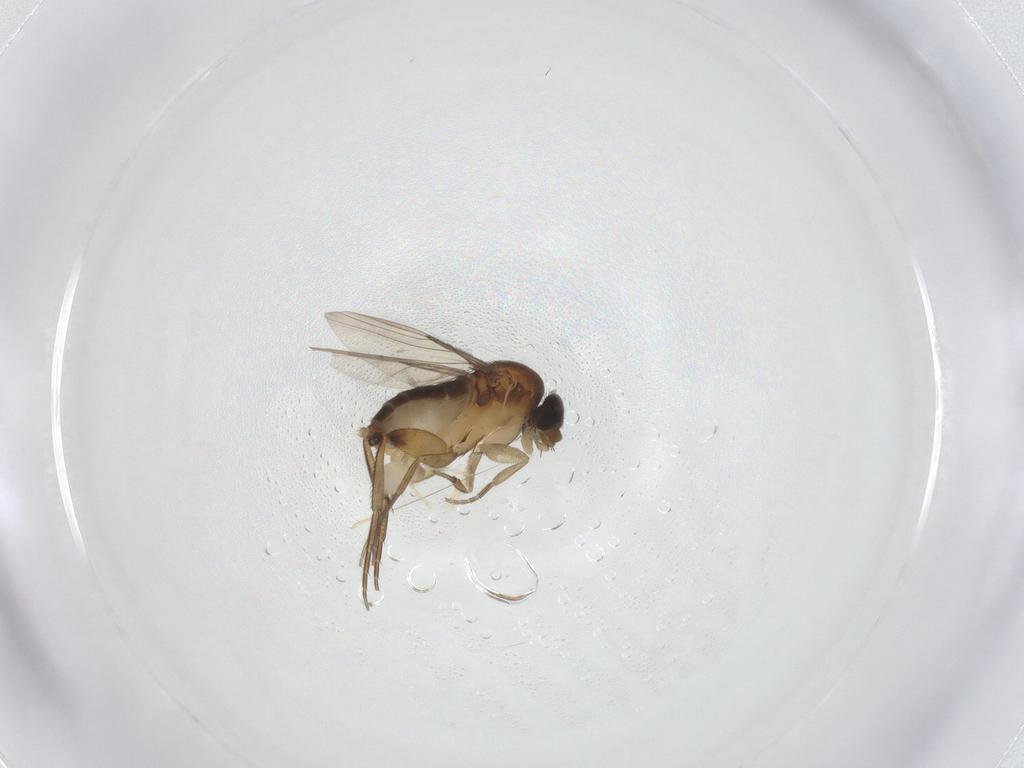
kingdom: Animalia
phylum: Arthropoda
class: Insecta
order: Diptera
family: Phoridae
